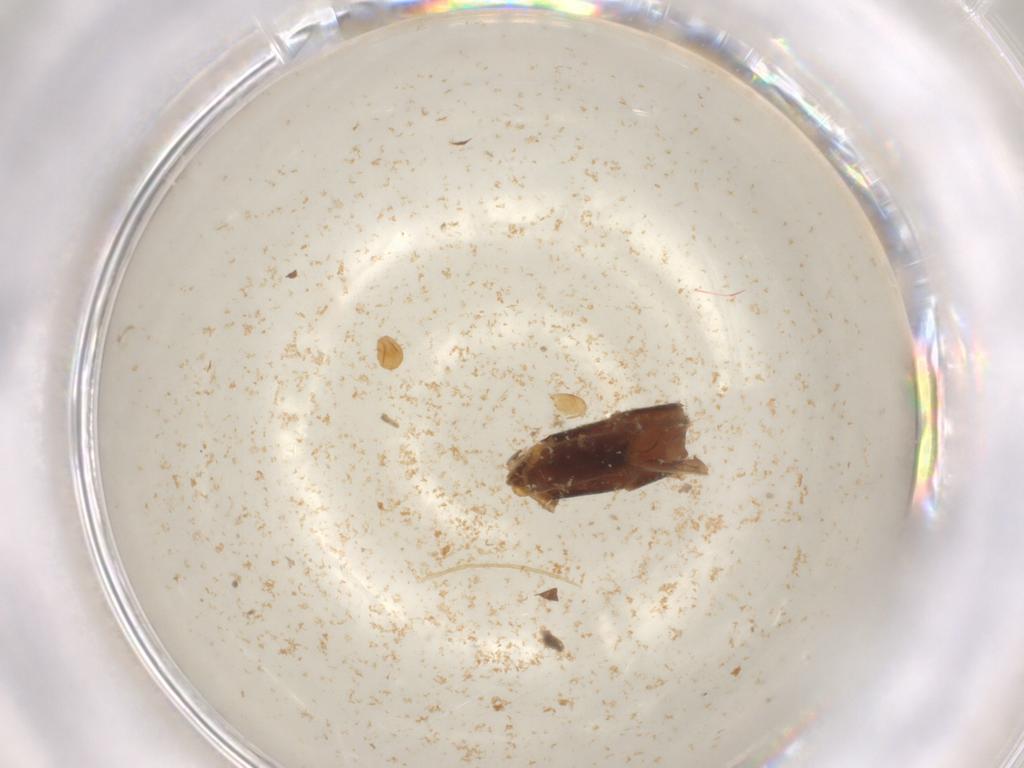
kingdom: Animalia
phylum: Arthropoda
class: Insecta
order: Diptera
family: Asilidae
